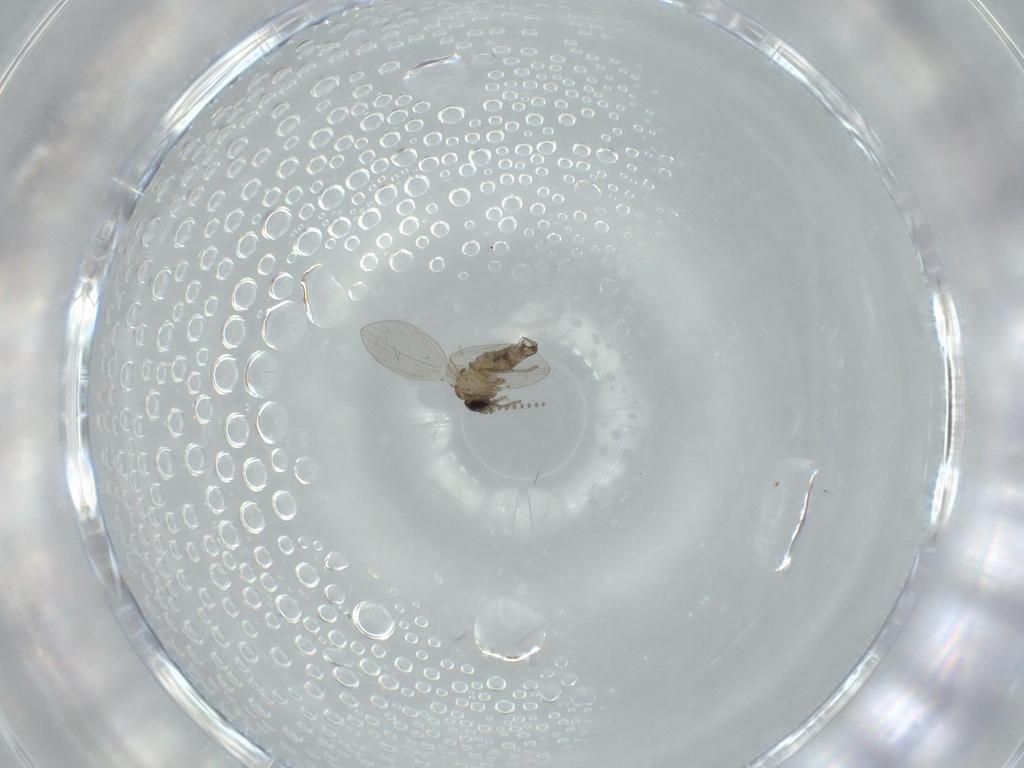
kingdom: Animalia
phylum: Arthropoda
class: Insecta
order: Diptera
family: Psychodidae
